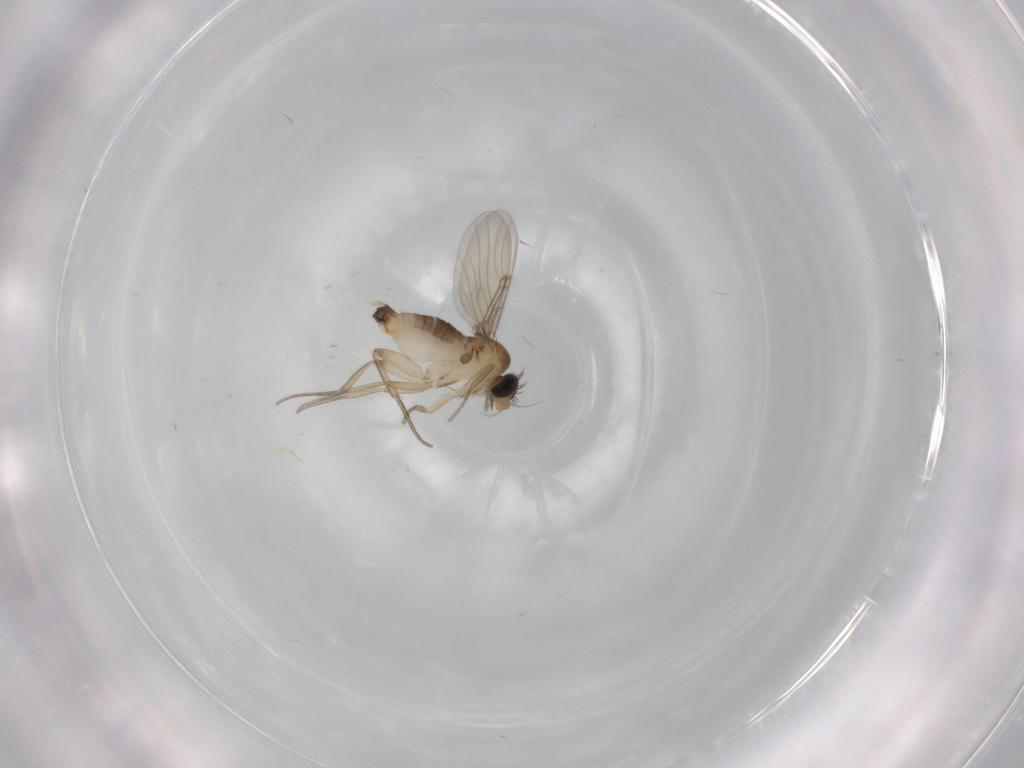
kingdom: Animalia
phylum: Arthropoda
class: Insecta
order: Diptera
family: Phoridae
